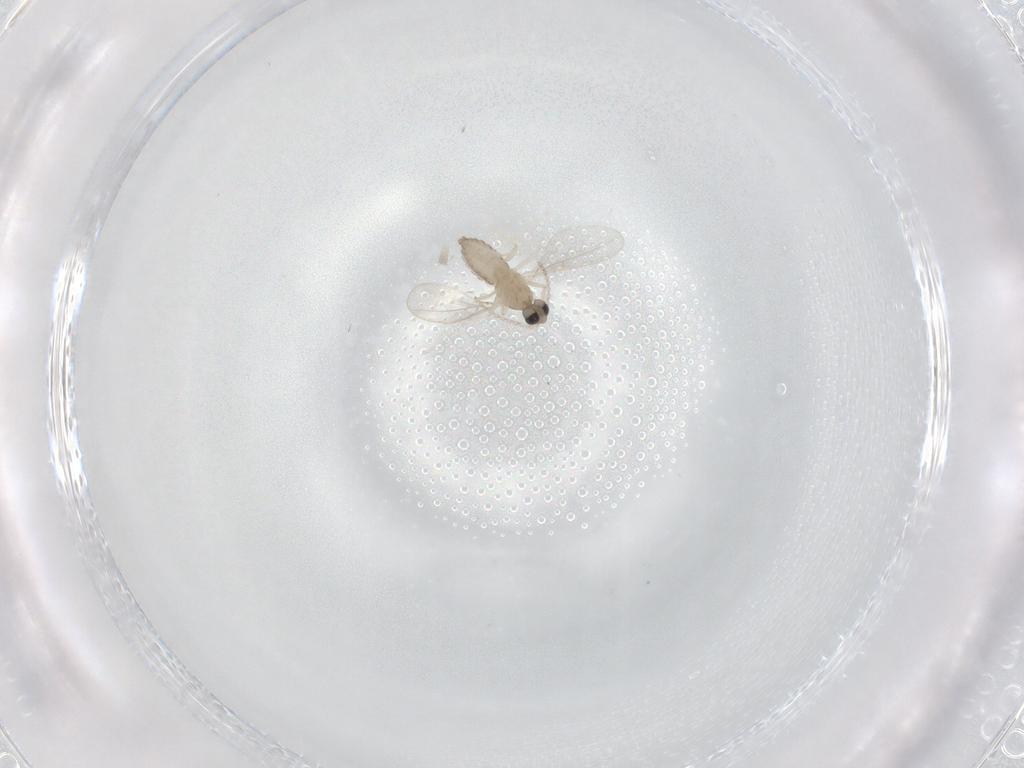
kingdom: Animalia
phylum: Arthropoda
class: Insecta
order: Diptera
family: Cecidomyiidae
